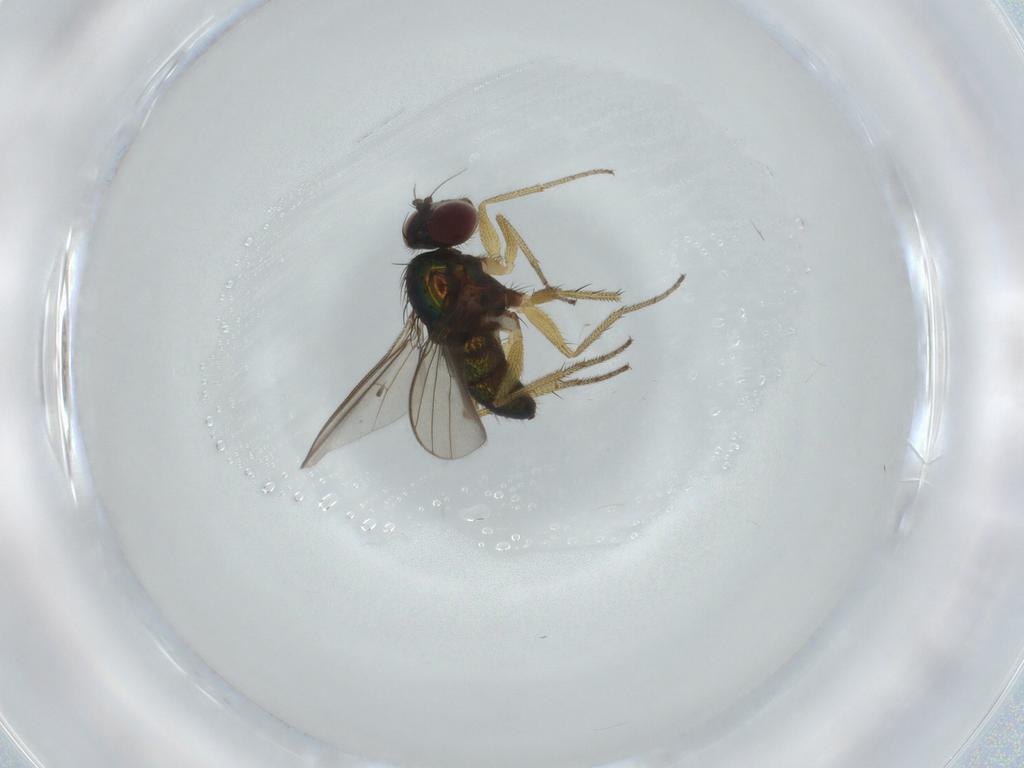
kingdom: Animalia
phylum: Arthropoda
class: Insecta
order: Diptera
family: Dolichopodidae
